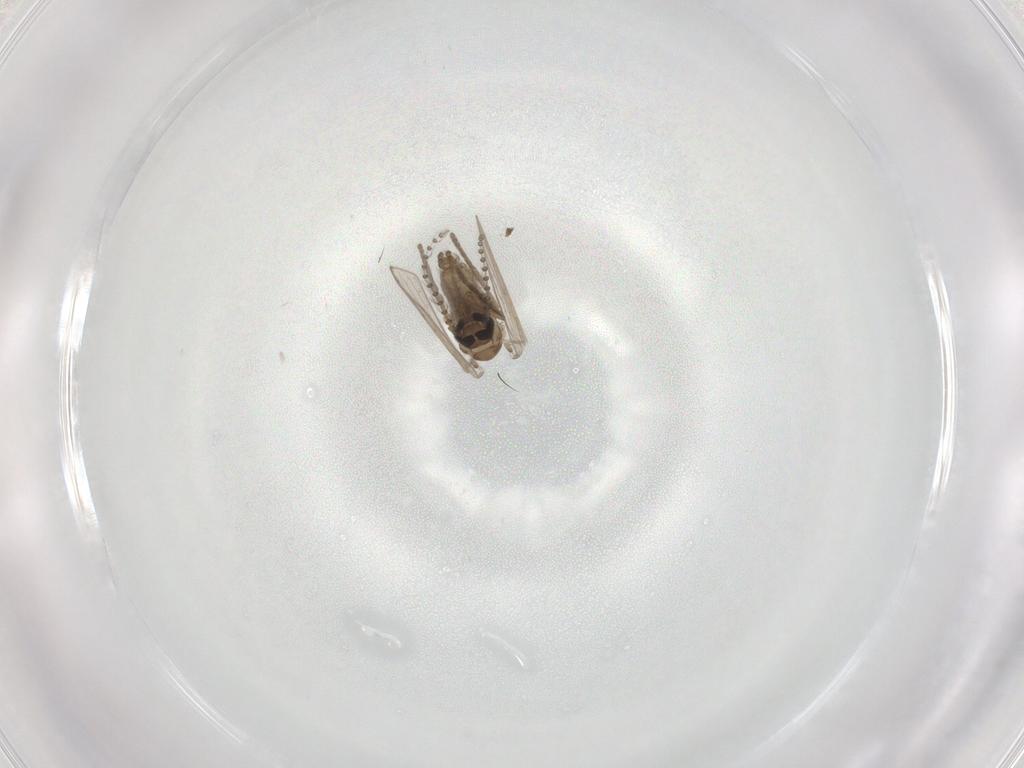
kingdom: Animalia
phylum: Arthropoda
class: Insecta
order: Diptera
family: Psychodidae
